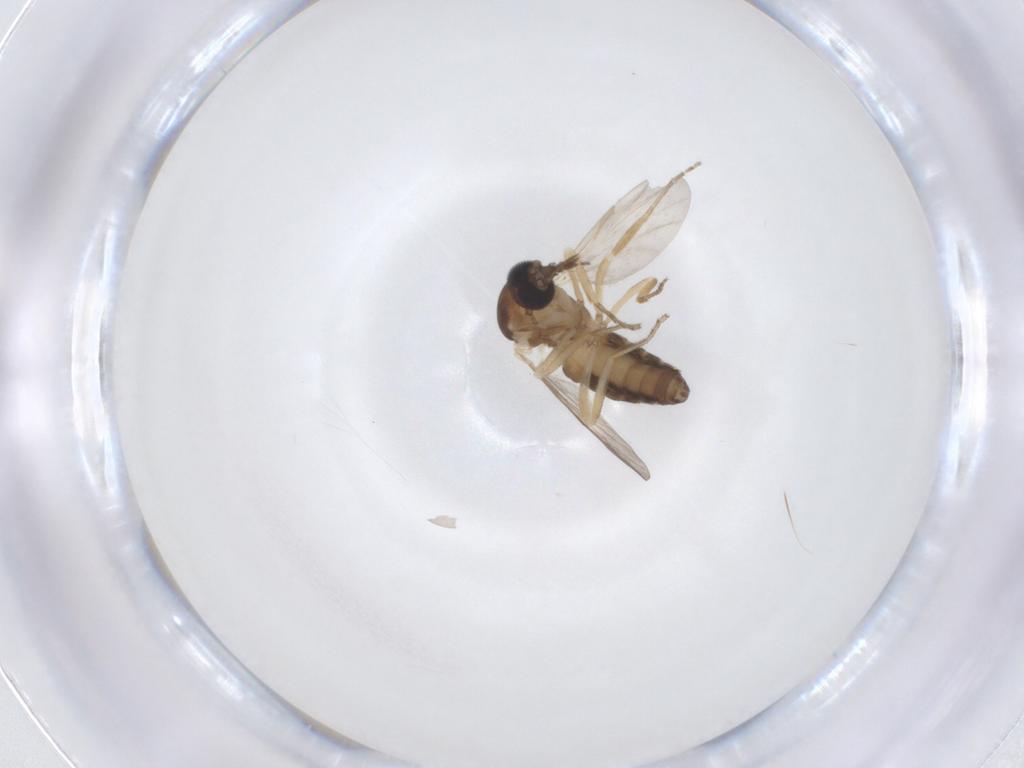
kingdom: Animalia
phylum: Arthropoda
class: Insecta
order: Diptera
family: Ceratopogonidae
